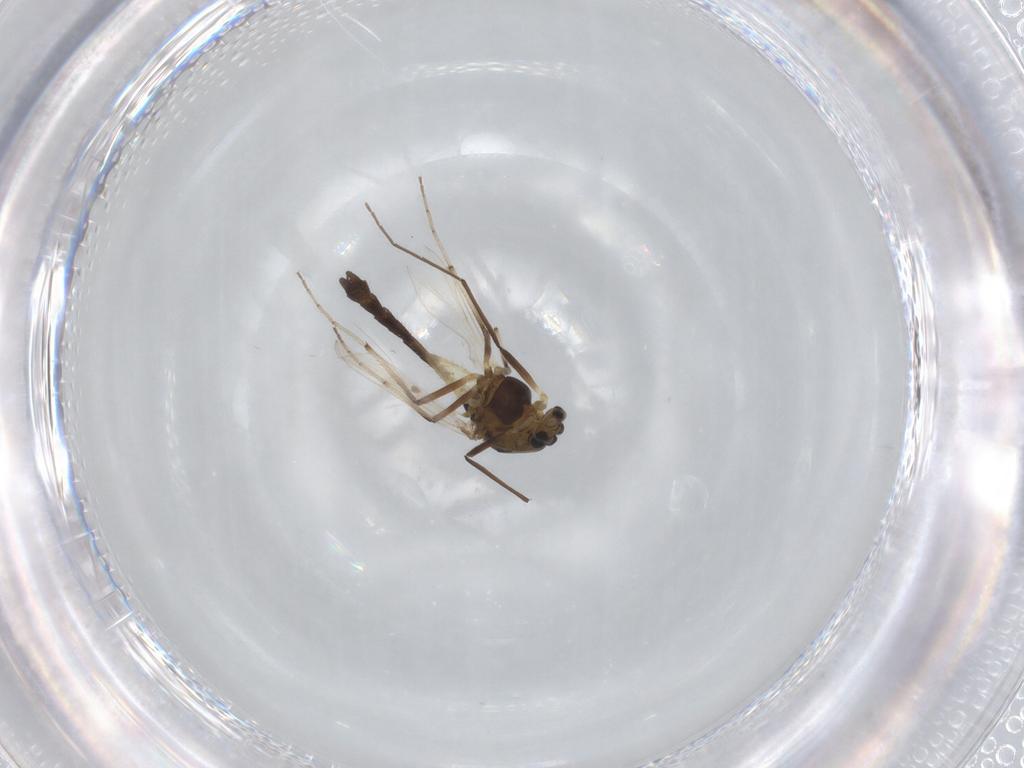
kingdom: Animalia
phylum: Arthropoda
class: Insecta
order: Diptera
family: Chironomidae
